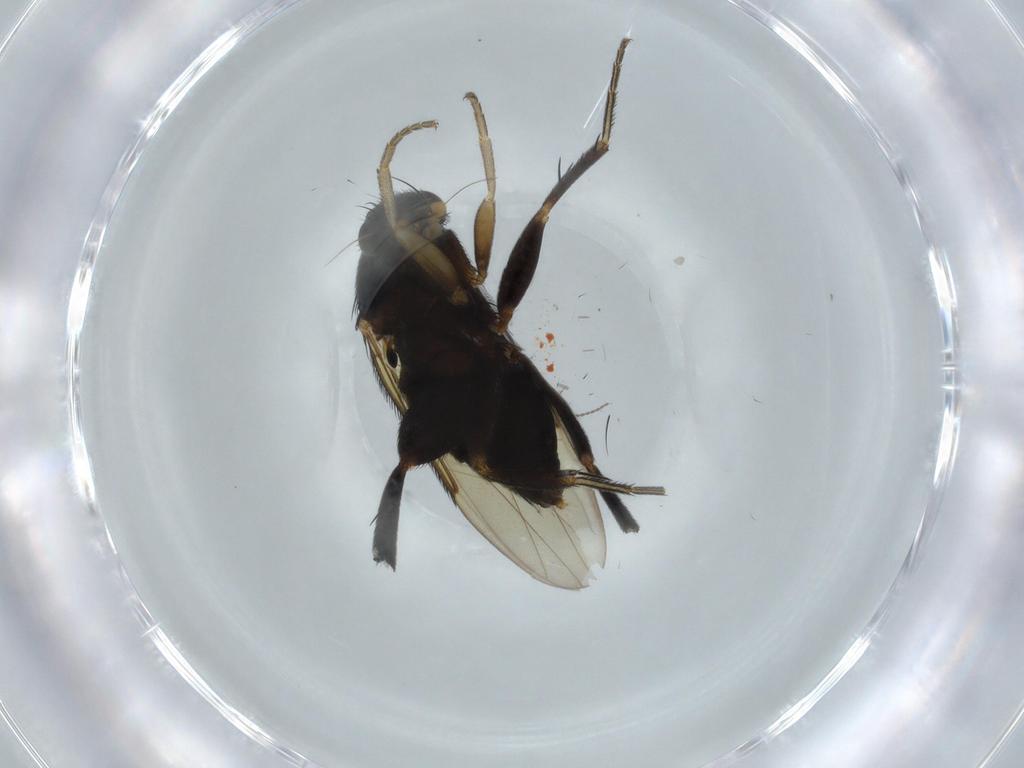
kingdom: Animalia
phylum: Arthropoda
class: Insecta
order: Diptera
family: Phoridae
